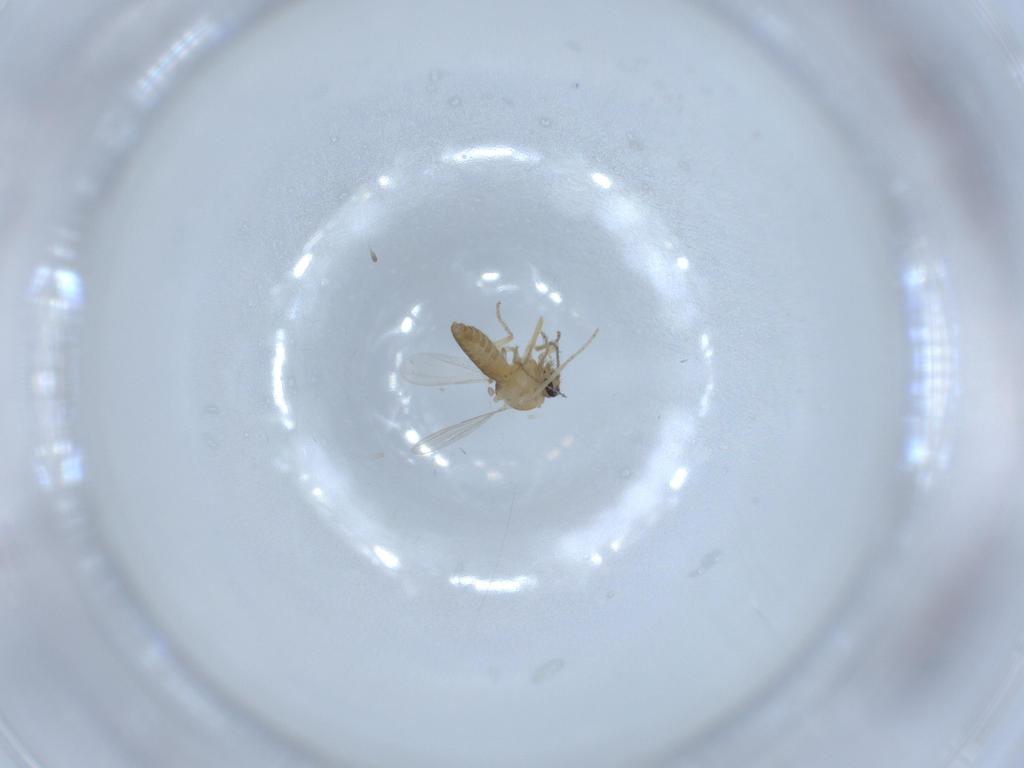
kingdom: Animalia
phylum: Arthropoda
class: Insecta
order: Diptera
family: Ceratopogonidae
